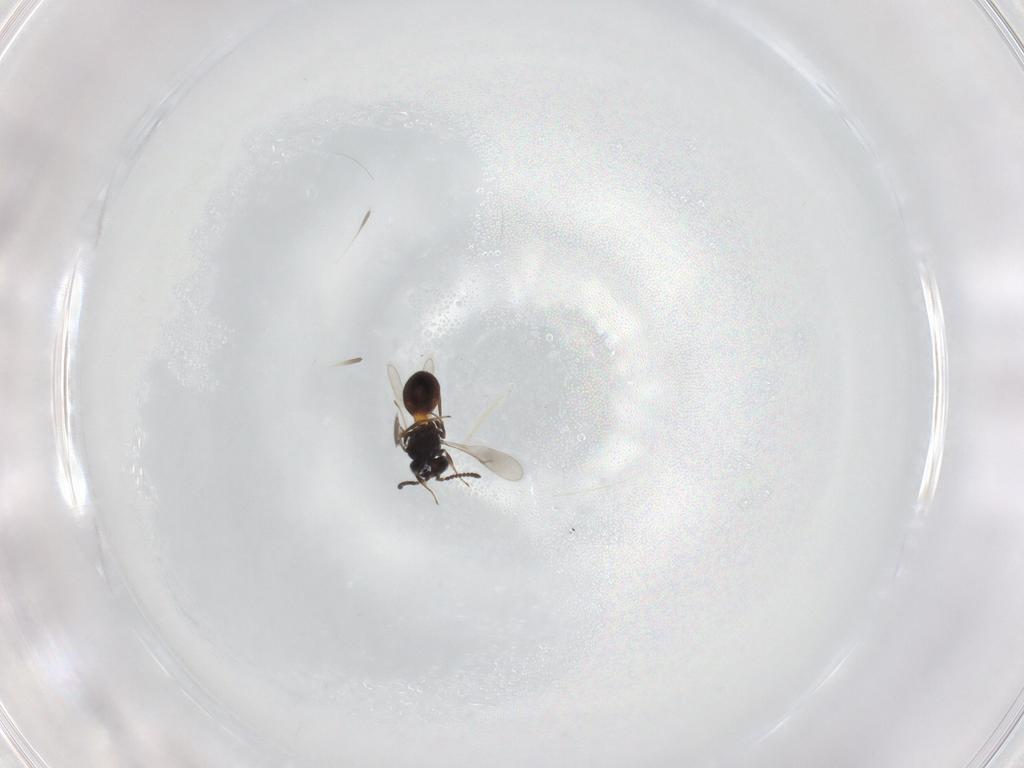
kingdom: Animalia
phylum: Arthropoda
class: Insecta
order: Hymenoptera
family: Scelionidae
